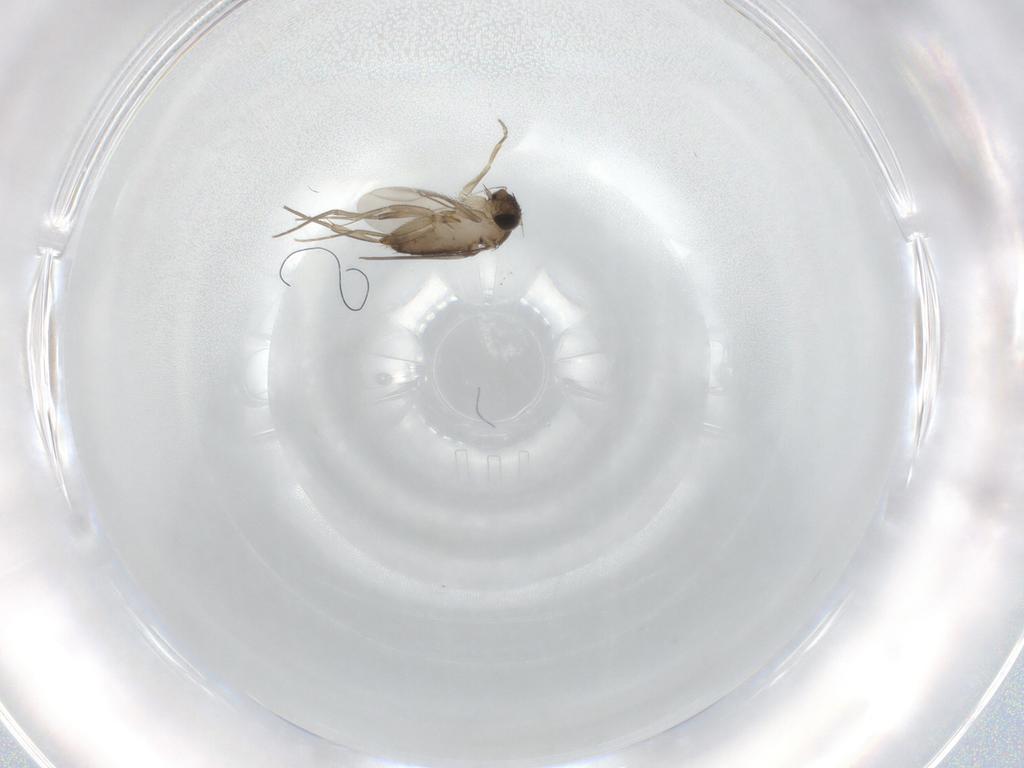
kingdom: Animalia
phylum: Arthropoda
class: Insecta
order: Diptera
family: Phoridae
